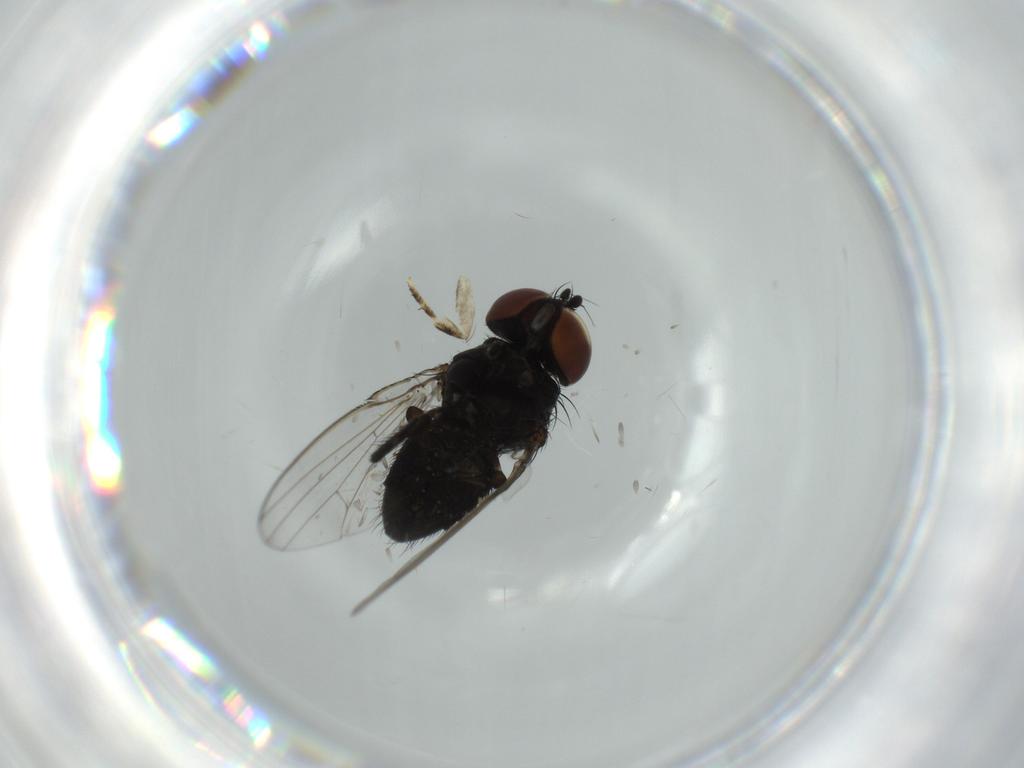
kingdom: Animalia
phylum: Arthropoda
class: Insecta
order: Diptera
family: Milichiidae
